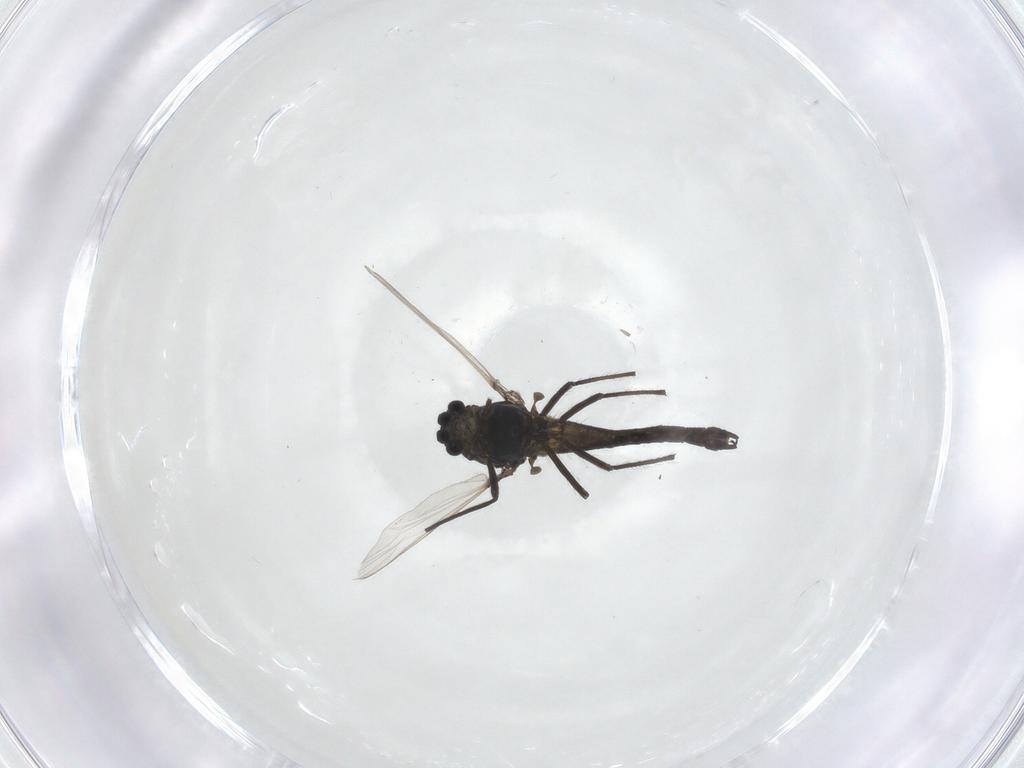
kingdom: Animalia
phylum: Arthropoda
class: Insecta
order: Diptera
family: Chironomidae
